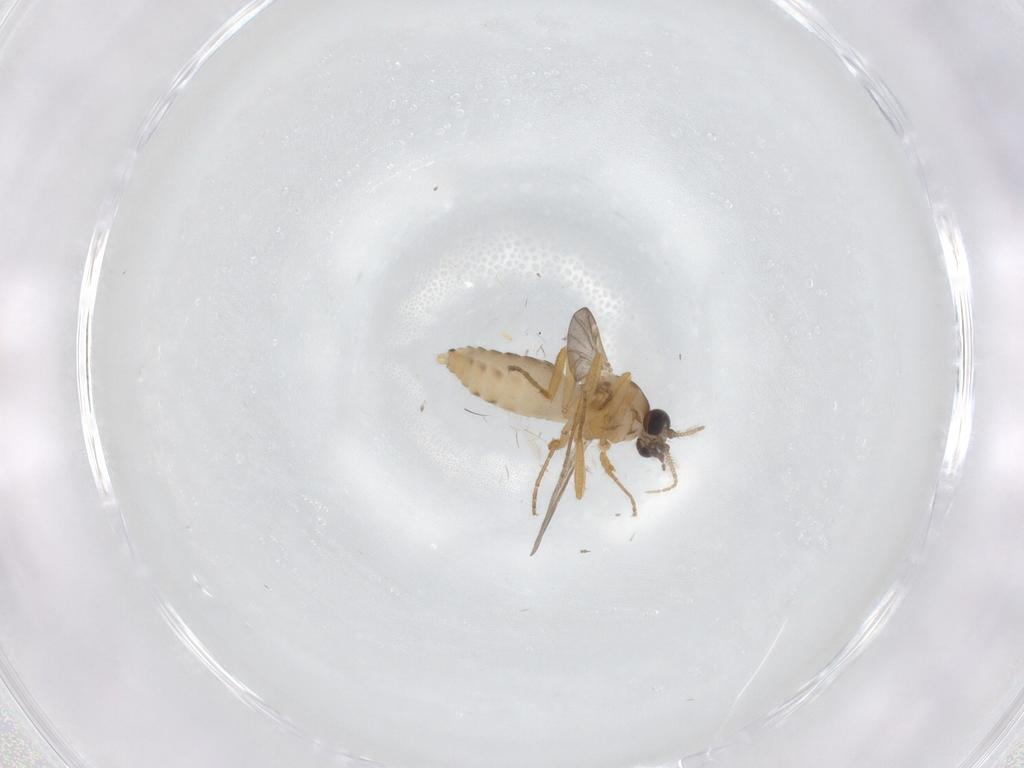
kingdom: Animalia
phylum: Arthropoda
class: Insecta
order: Diptera
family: Ceratopogonidae
